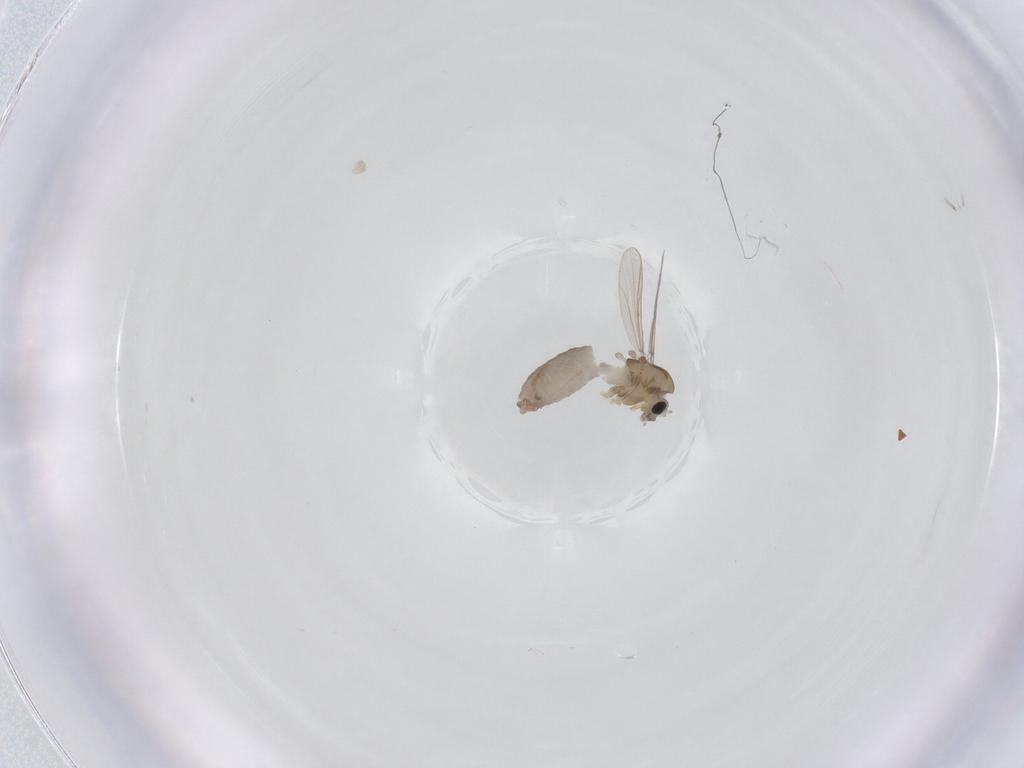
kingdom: Animalia
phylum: Arthropoda
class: Insecta
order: Diptera
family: Chironomidae
